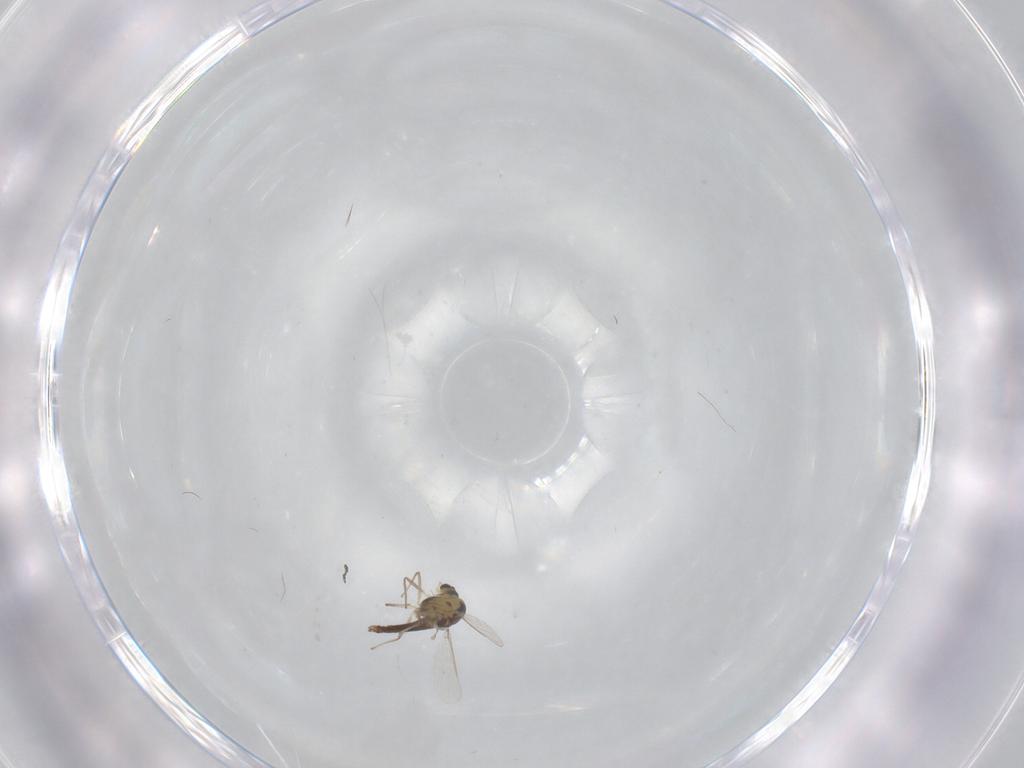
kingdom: Animalia
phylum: Arthropoda
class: Insecta
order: Diptera
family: Chironomidae
